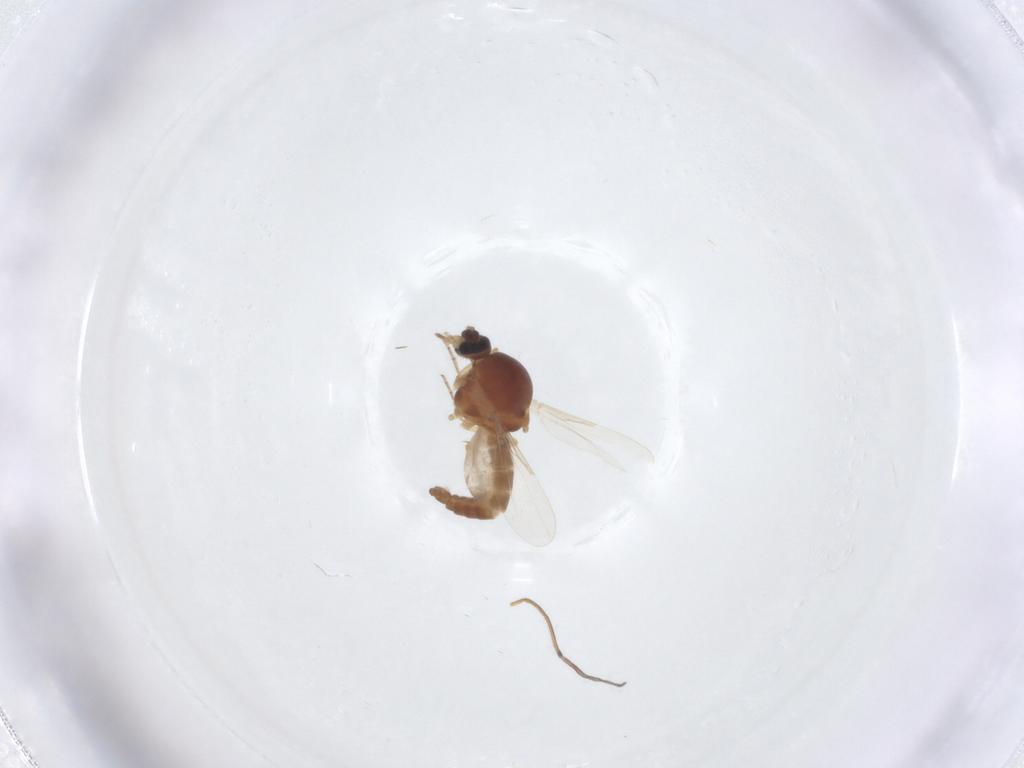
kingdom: Animalia
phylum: Arthropoda
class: Insecta
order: Diptera
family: Ceratopogonidae
